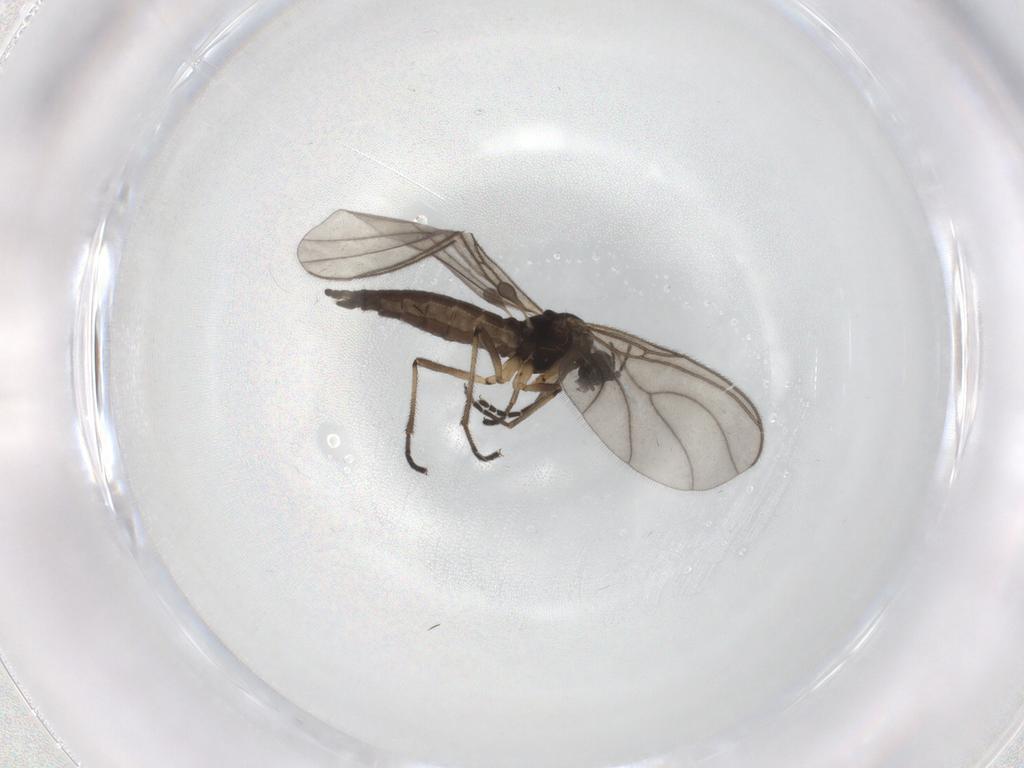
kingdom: Animalia
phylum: Arthropoda
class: Insecta
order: Diptera
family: Sciaridae
